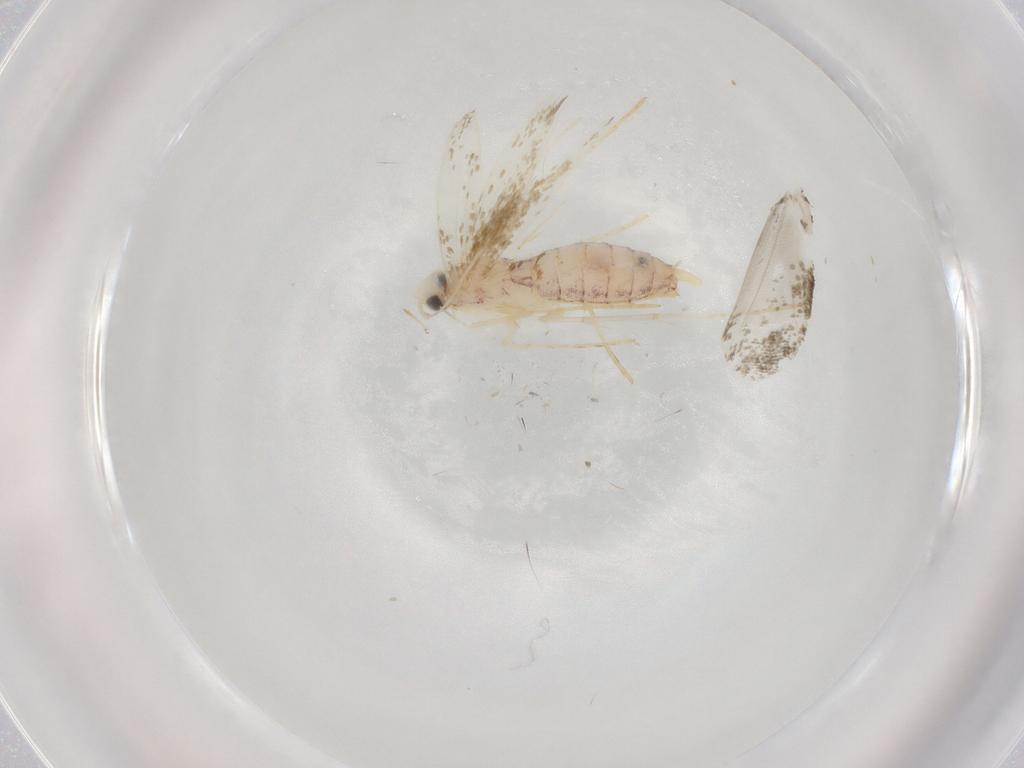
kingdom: Animalia
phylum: Arthropoda
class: Insecta
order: Lepidoptera
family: Lyonetiidae
